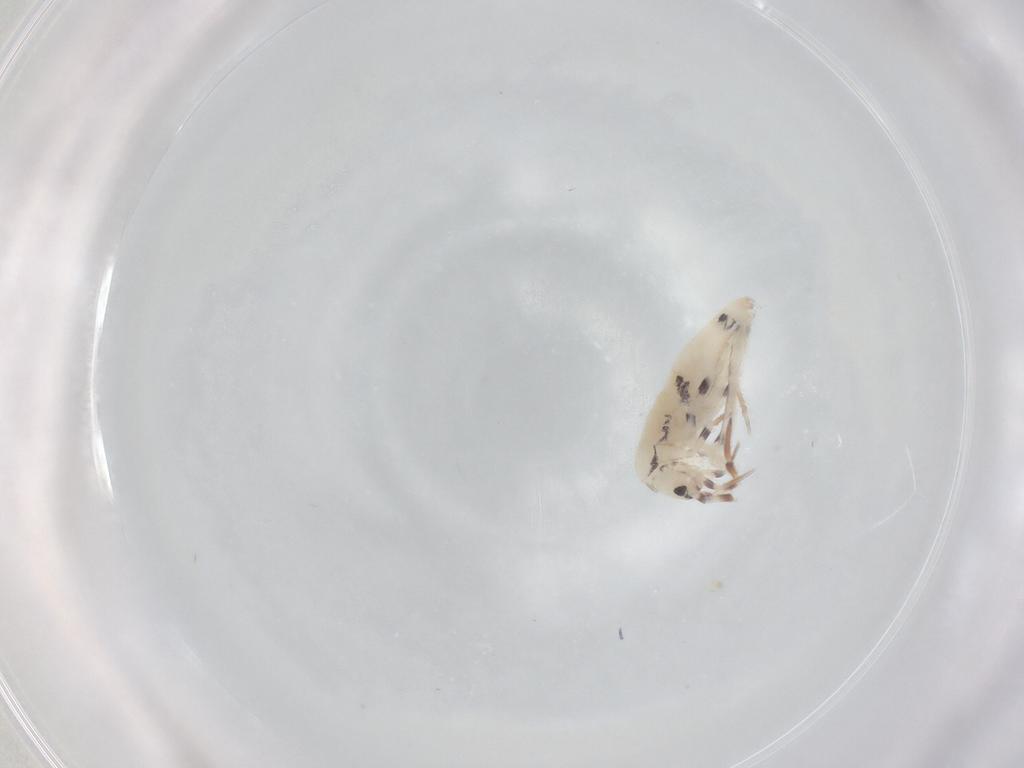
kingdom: Animalia
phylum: Arthropoda
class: Collembola
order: Entomobryomorpha
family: Entomobryidae
